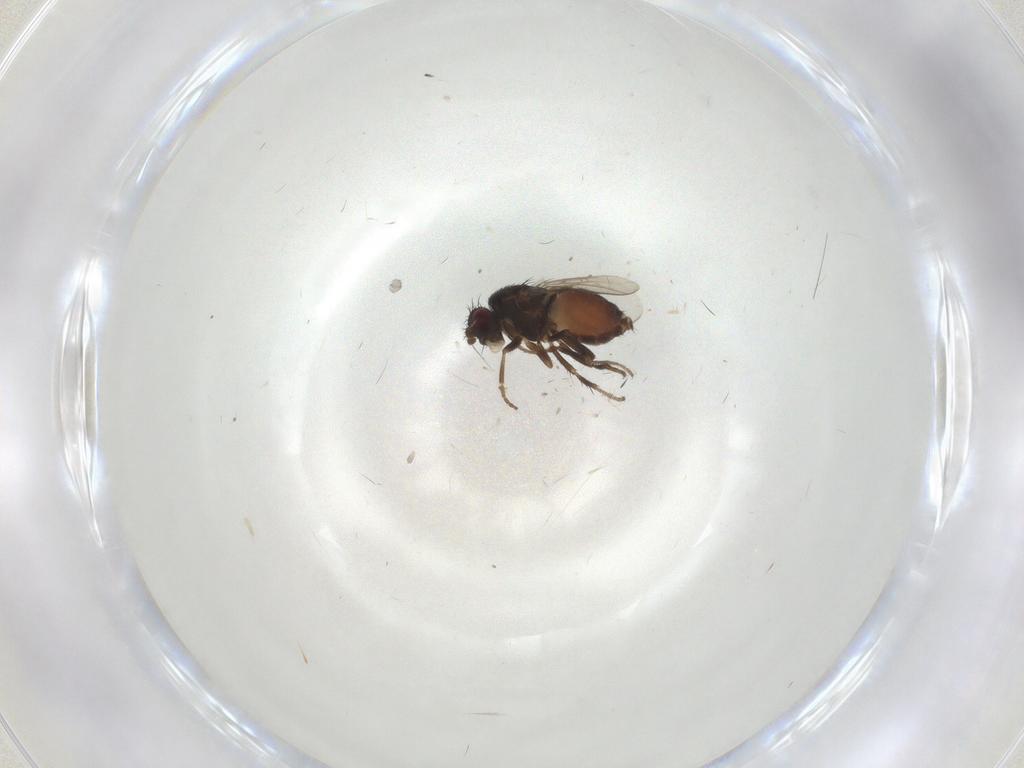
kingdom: Animalia
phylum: Arthropoda
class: Insecta
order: Diptera
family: Sphaeroceridae
